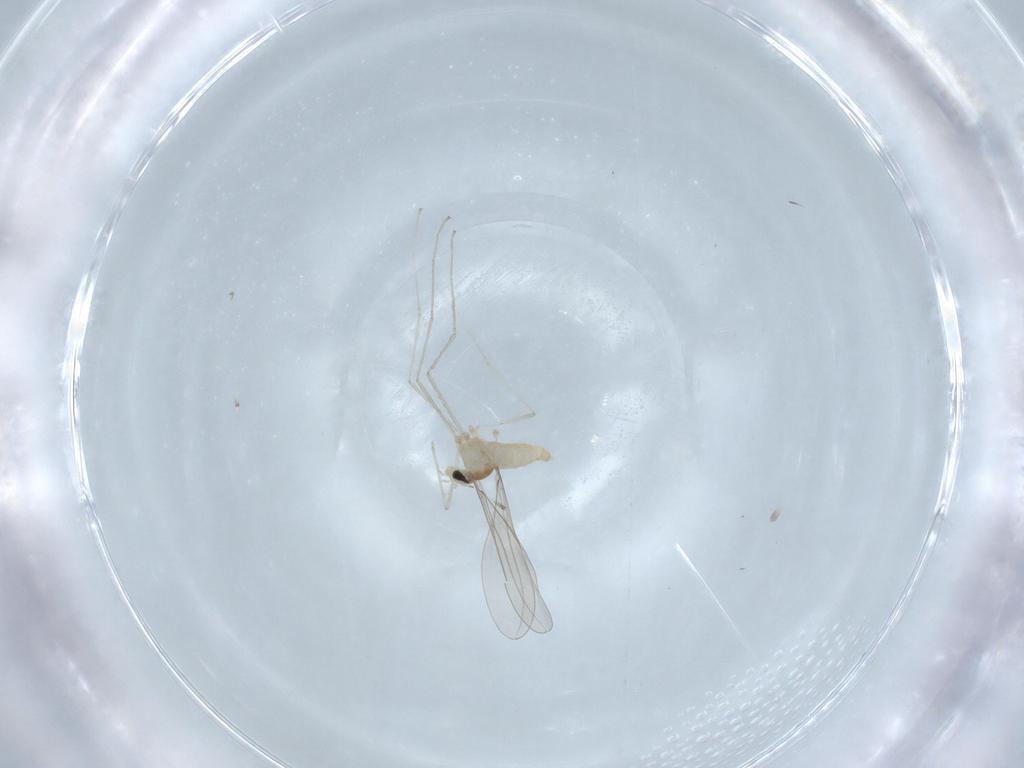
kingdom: Animalia
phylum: Arthropoda
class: Insecta
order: Diptera
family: Cecidomyiidae
